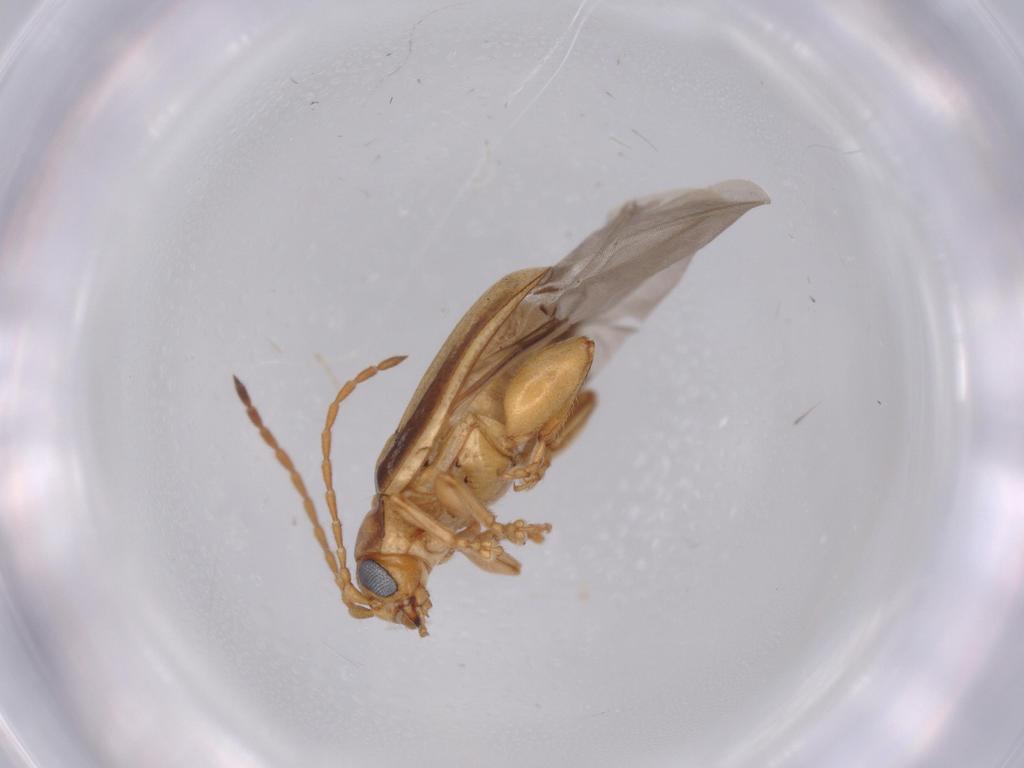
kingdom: Animalia
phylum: Arthropoda
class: Insecta
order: Coleoptera
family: Chrysomelidae
